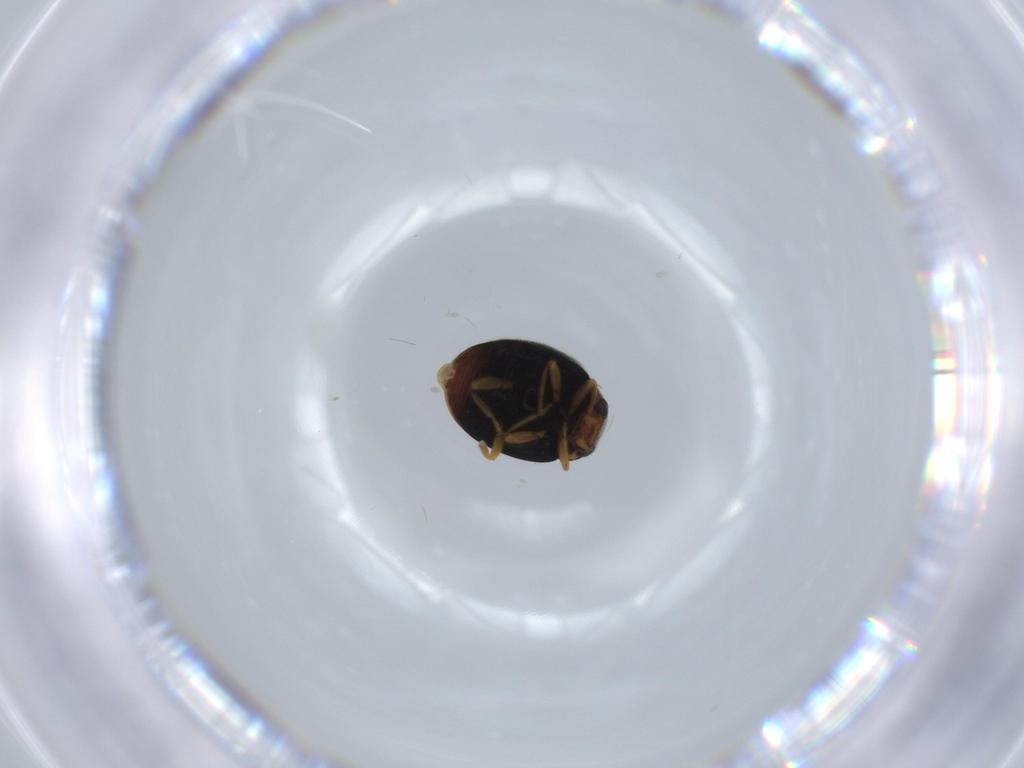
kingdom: Animalia
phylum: Arthropoda
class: Insecta
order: Coleoptera
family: Coccinellidae
